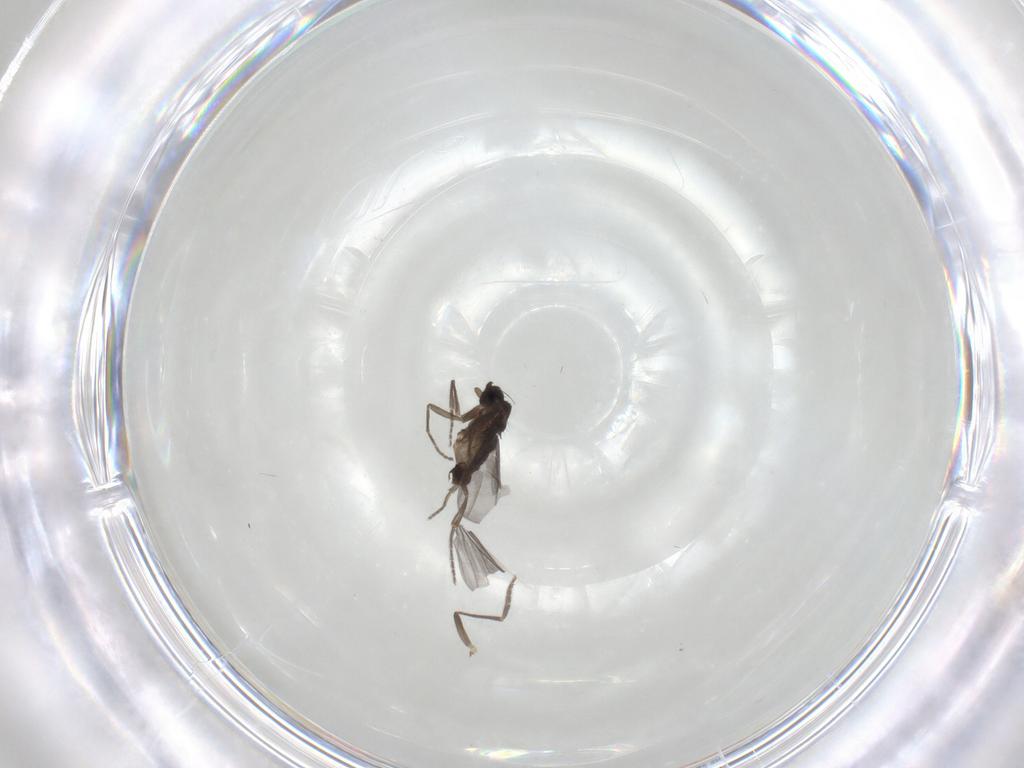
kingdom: Animalia
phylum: Arthropoda
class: Insecta
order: Diptera
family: Phoridae
